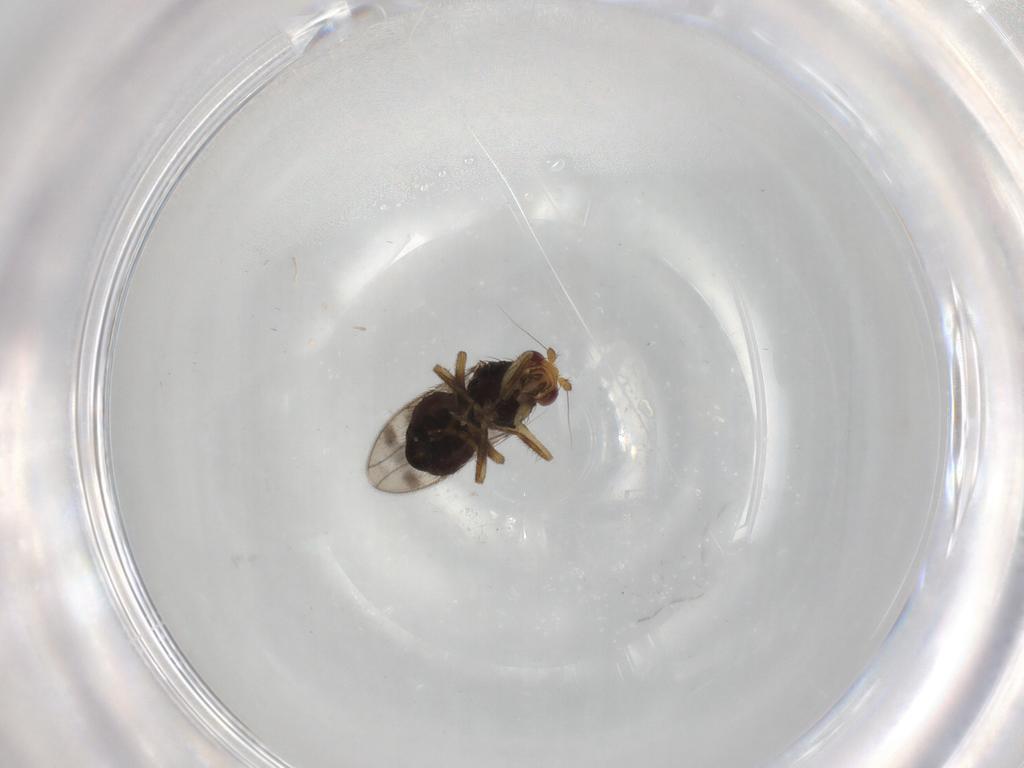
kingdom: Animalia
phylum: Arthropoda
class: Insecta
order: Diptera
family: Sphaeroceridae
